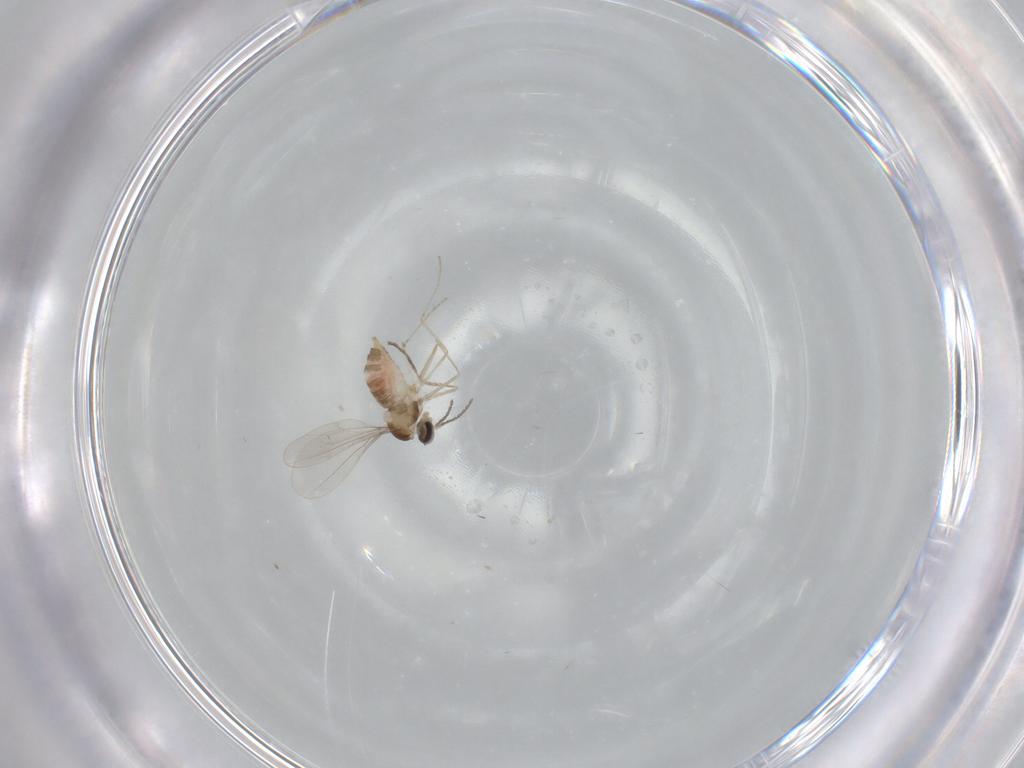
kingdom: Animalia
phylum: Arthropoda
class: Insecta
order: Diptera
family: Cecidomyiidae
